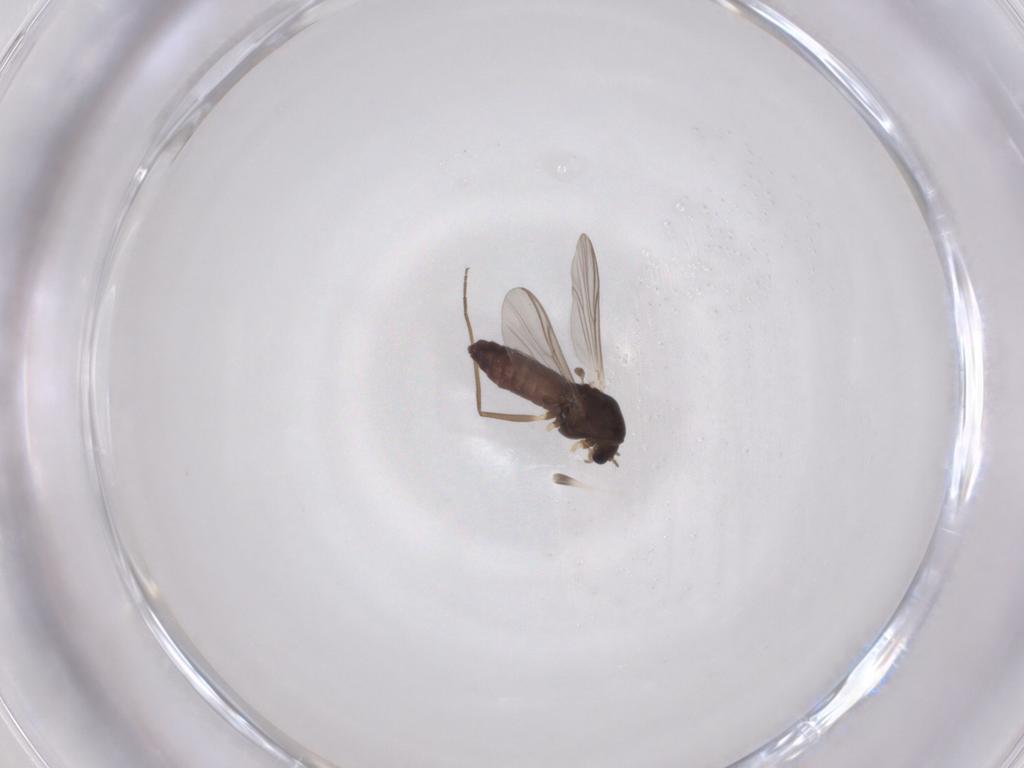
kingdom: Animalia
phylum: Arthropoda
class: Insecta
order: Diptera
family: Chironomidae
